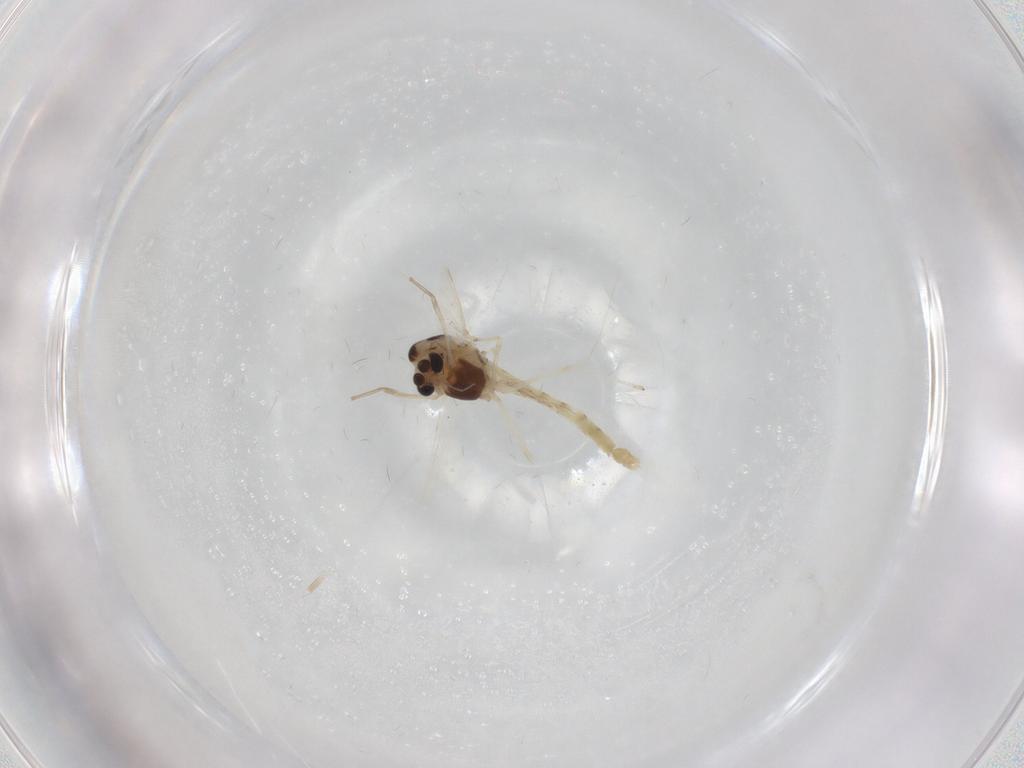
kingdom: Animalia
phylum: Arthropoda
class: Insecta
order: Diptera
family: Chironomidae
